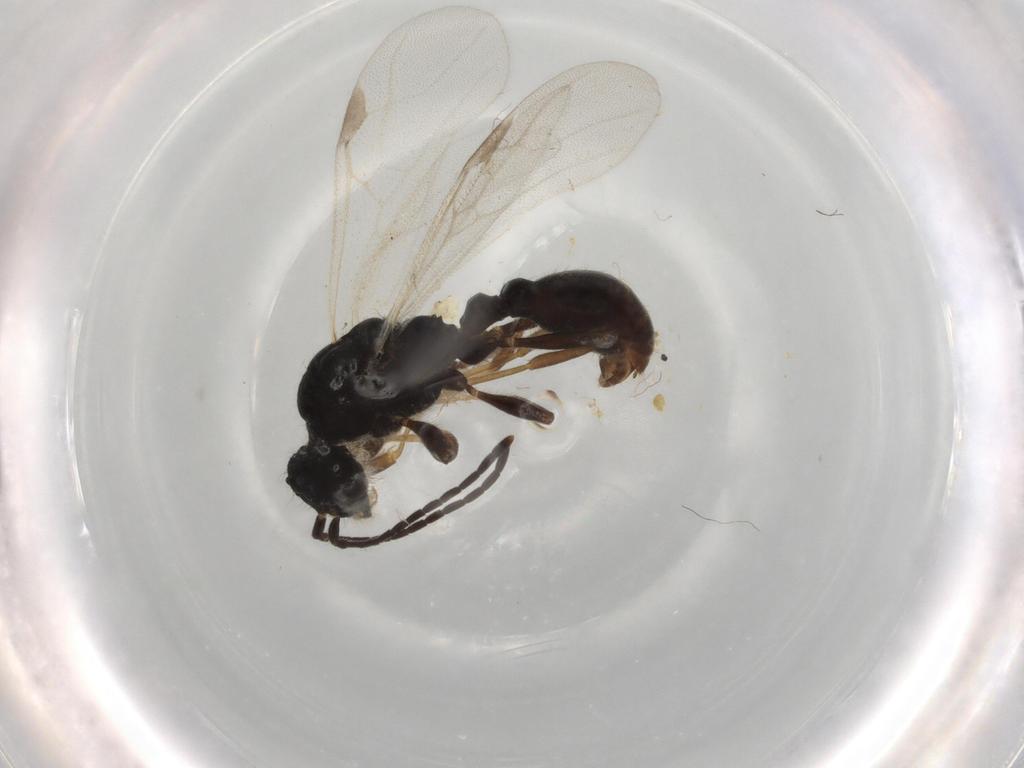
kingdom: Animalia
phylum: Arthropoda
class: Insecta
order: Hymenoptera
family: Formicidae
